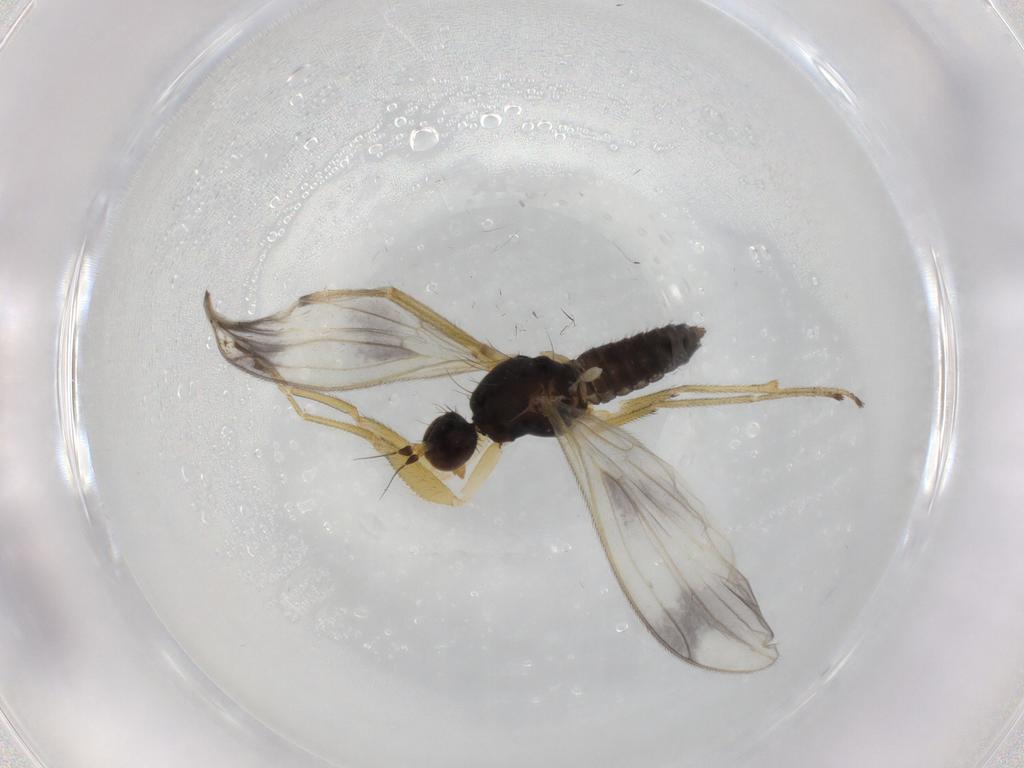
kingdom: Animalia
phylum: Arthropoda
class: Insecta
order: Diptera
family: Empididae
